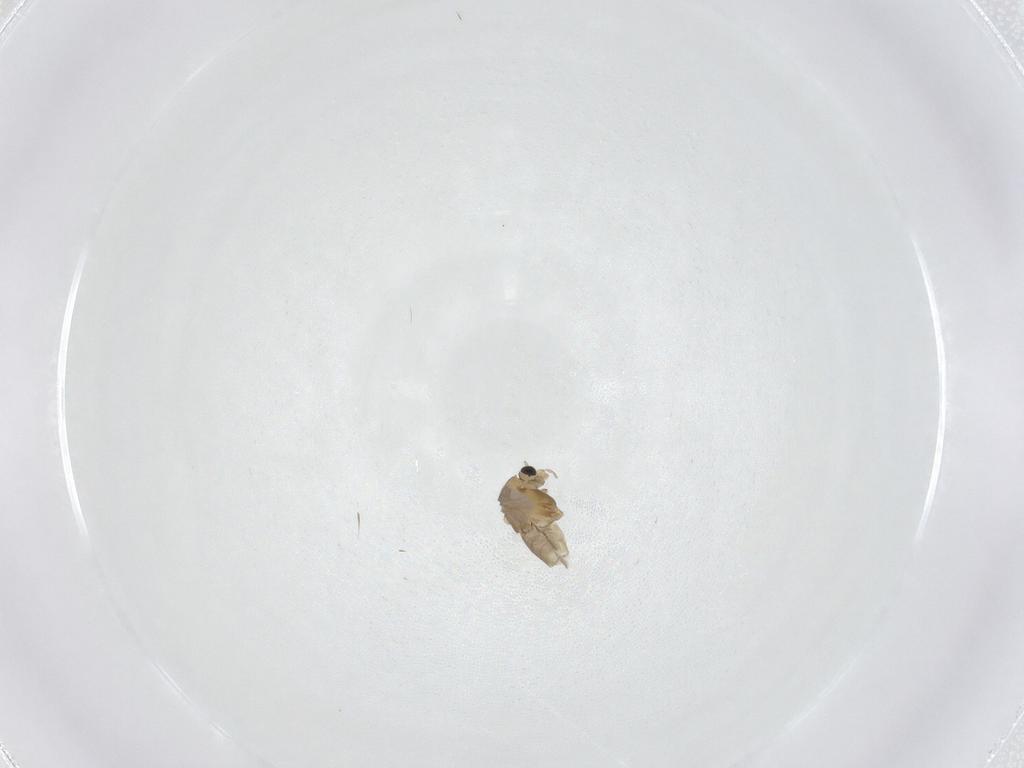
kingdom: Animalia
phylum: Arthropoda
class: Insecta
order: Diptera
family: Chironomidae
